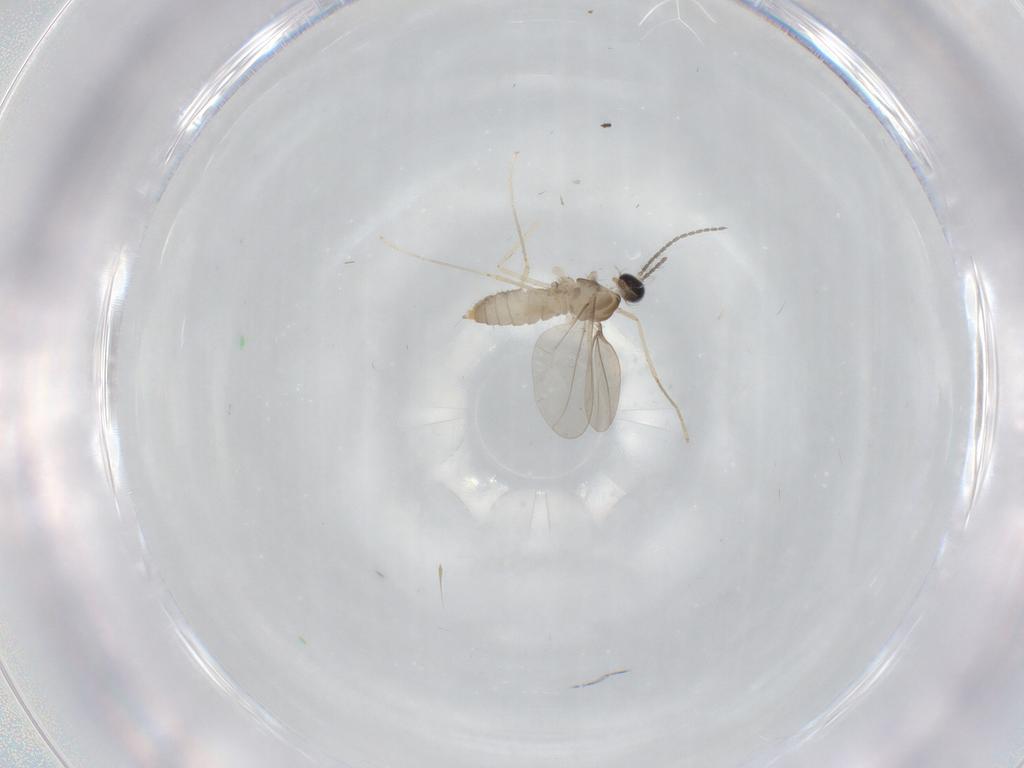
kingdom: Animalia
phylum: Arthropoda
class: Insecta
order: Diptera
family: Cecidomyiidae
